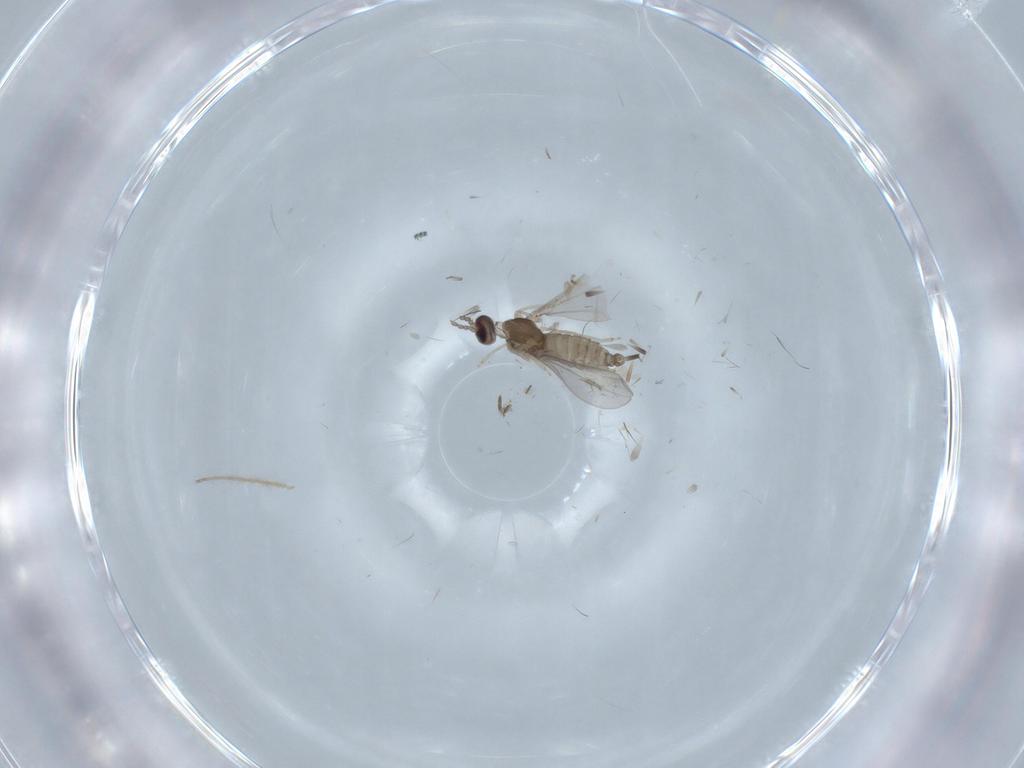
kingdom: Animalia
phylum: Arthropoda
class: Insecta
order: Diptera
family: Cecidomyiidae
